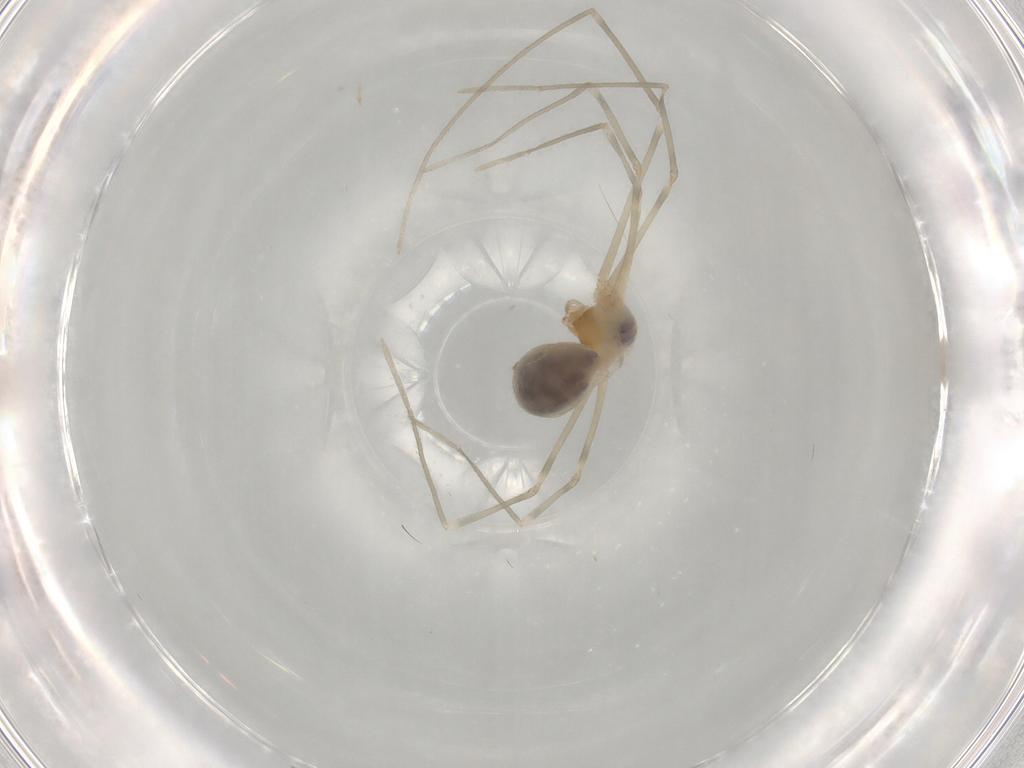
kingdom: Animalia
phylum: Arthropoda
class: Arachnida
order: Araneae
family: Pholcidae
